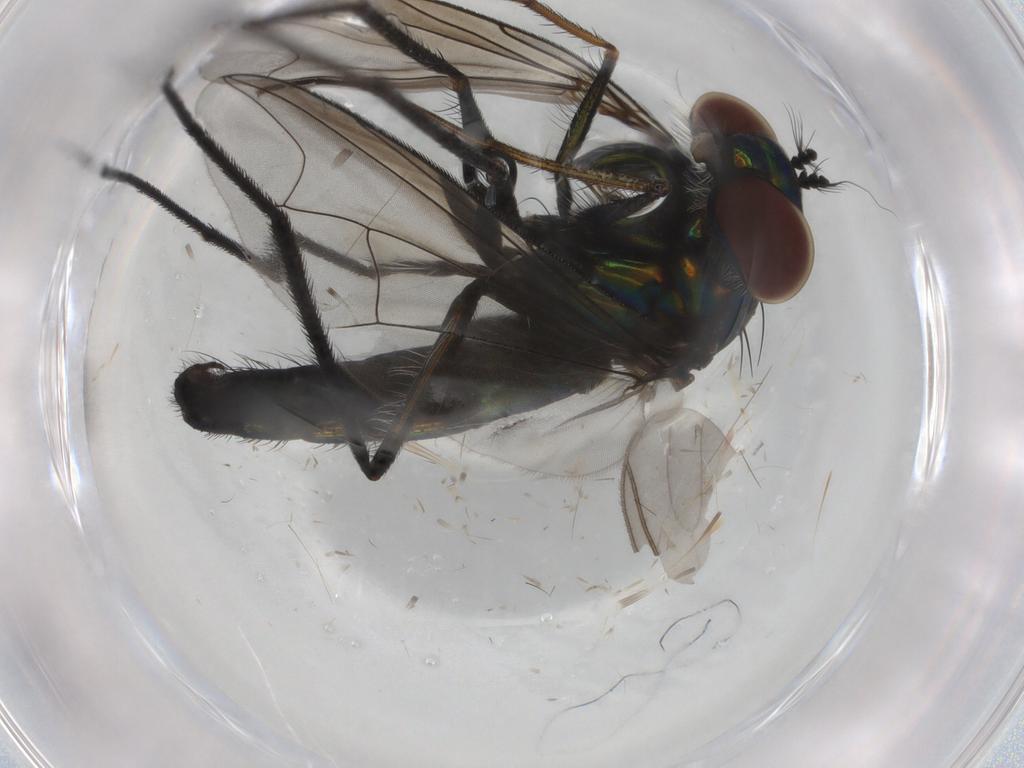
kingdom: Animalia
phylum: Arthropoda
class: Insecta
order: Diptera
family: Dolichopodidae
